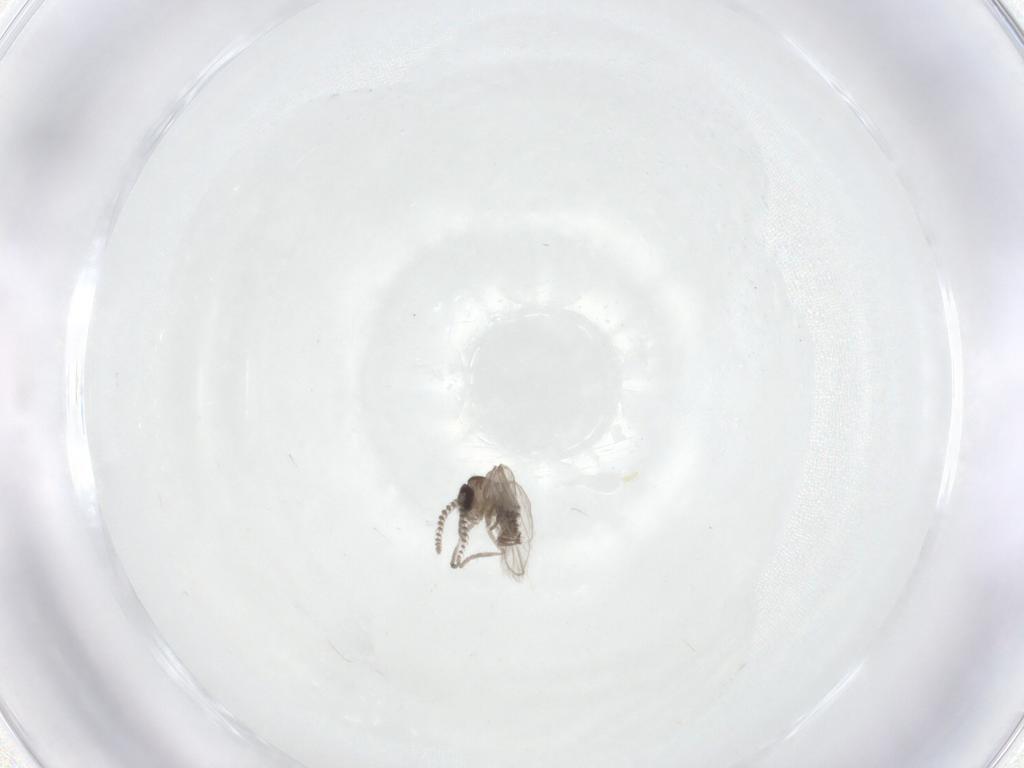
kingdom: Animalia
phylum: Arthropoda
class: Insecta
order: Diptera
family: Psychodidae
